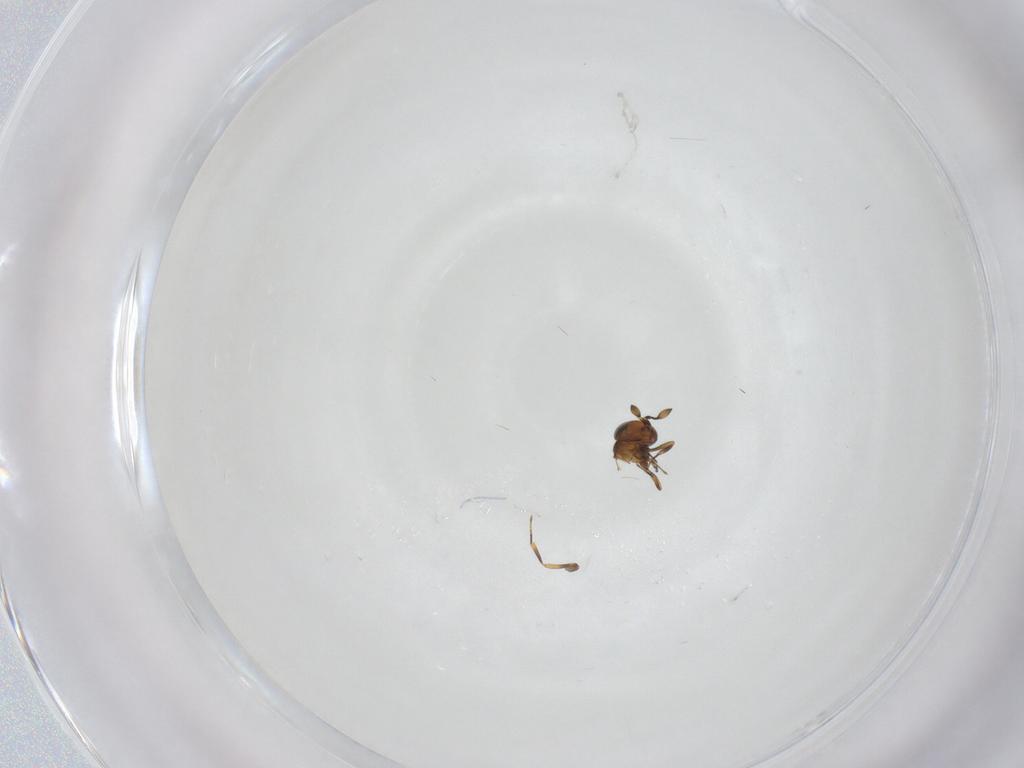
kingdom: Animalia
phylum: Arthropoda
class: Insecta
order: Hymenoptera
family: Scelionidae
